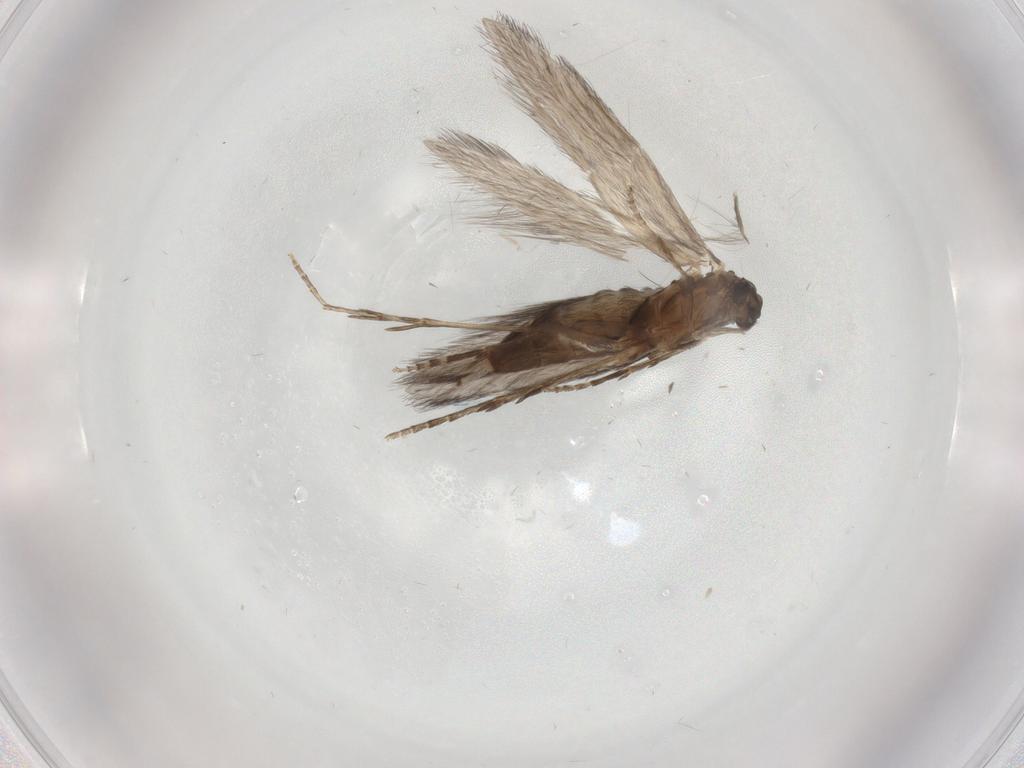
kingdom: Animalia
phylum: Arthropoda
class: Insecta
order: Trichoptera
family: Hydroptilidae
